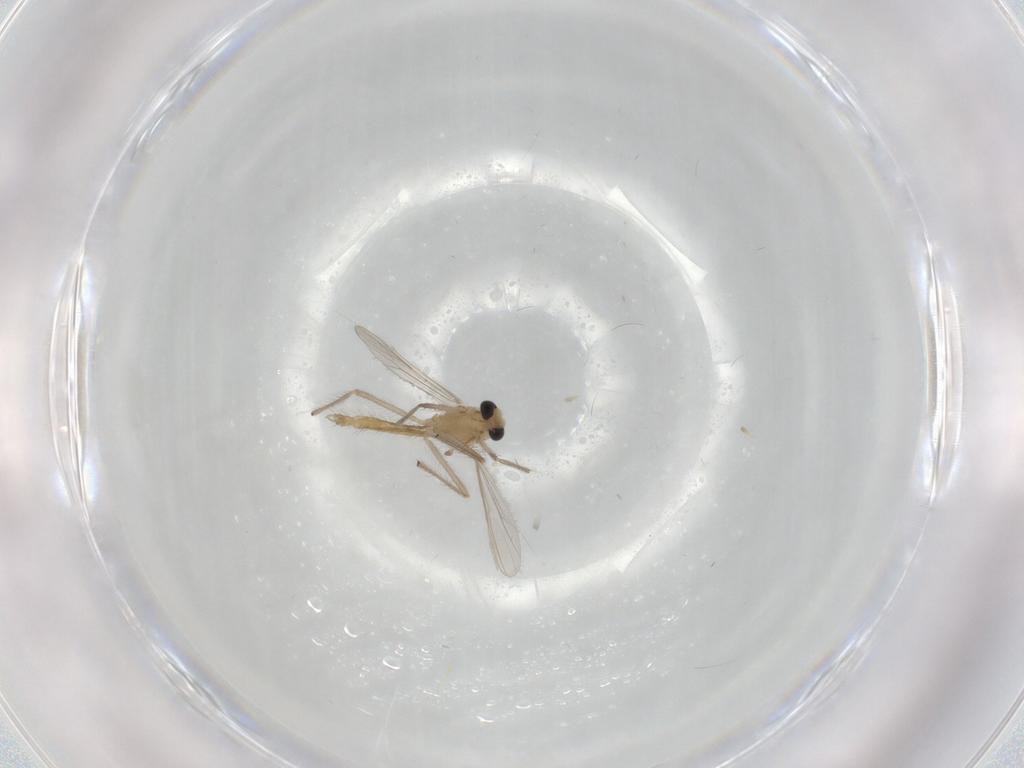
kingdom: Animalia
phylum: Arthropoda
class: Insecta
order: Diptera
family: Chironomidae
